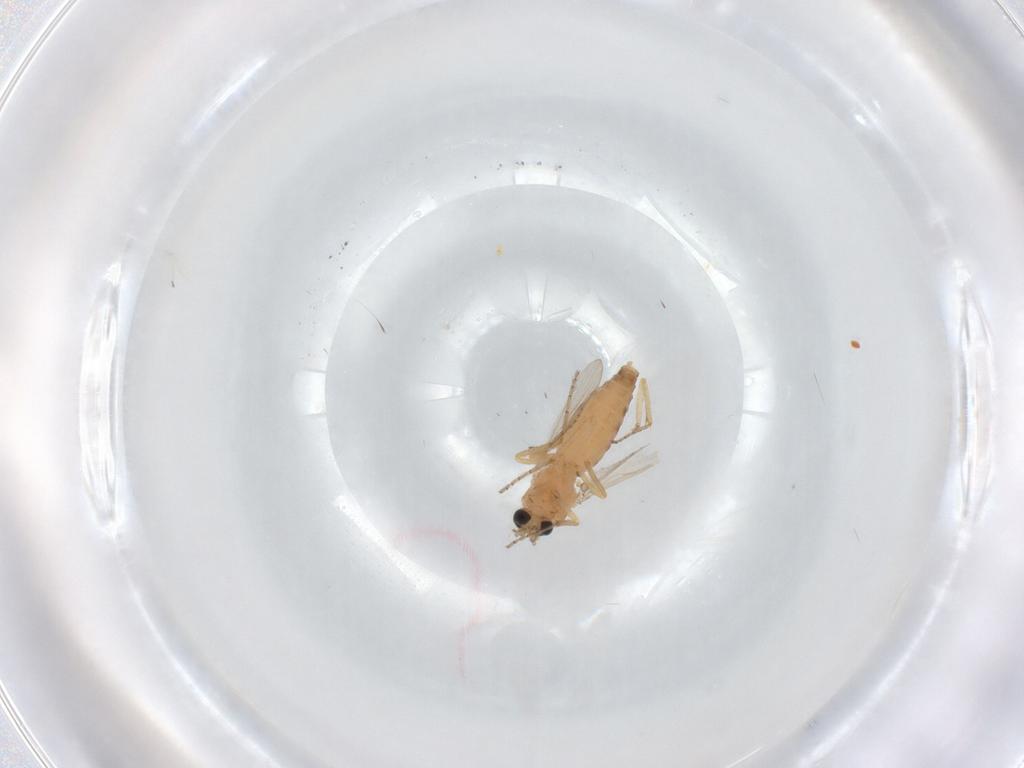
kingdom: Animalia
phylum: Arthropoda
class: Insecta
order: Diptera
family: Ceratopogonidae
